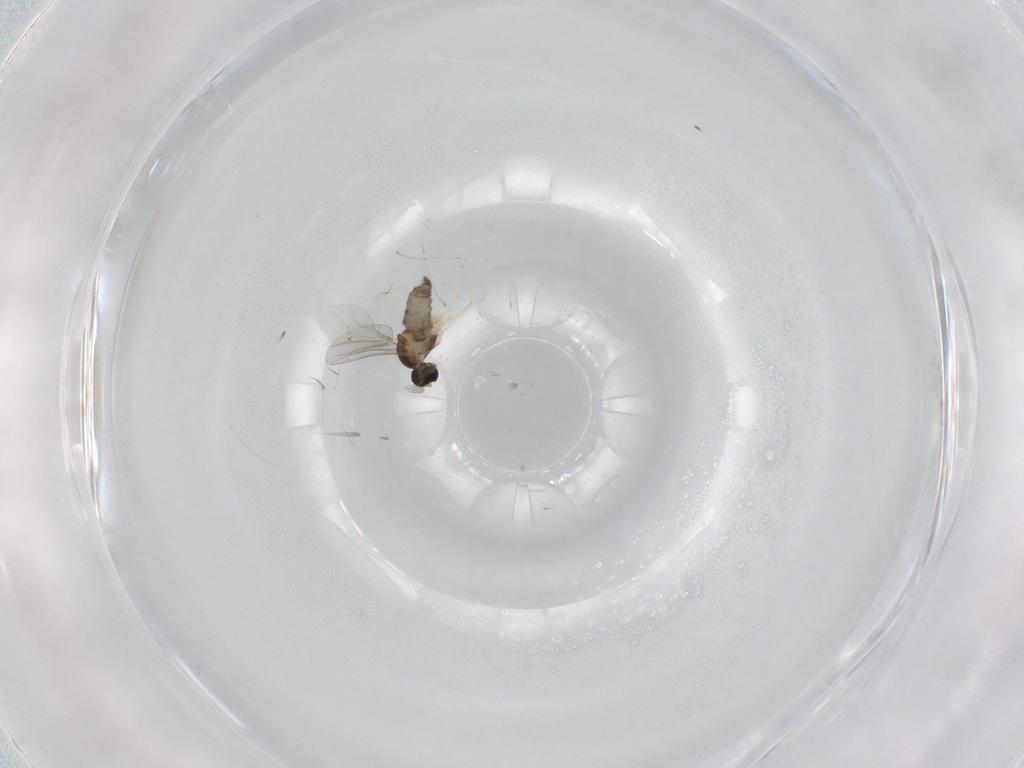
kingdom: Animalia
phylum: Arthropoda
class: Insecta
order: Diptera
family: Cecidomyiidae
